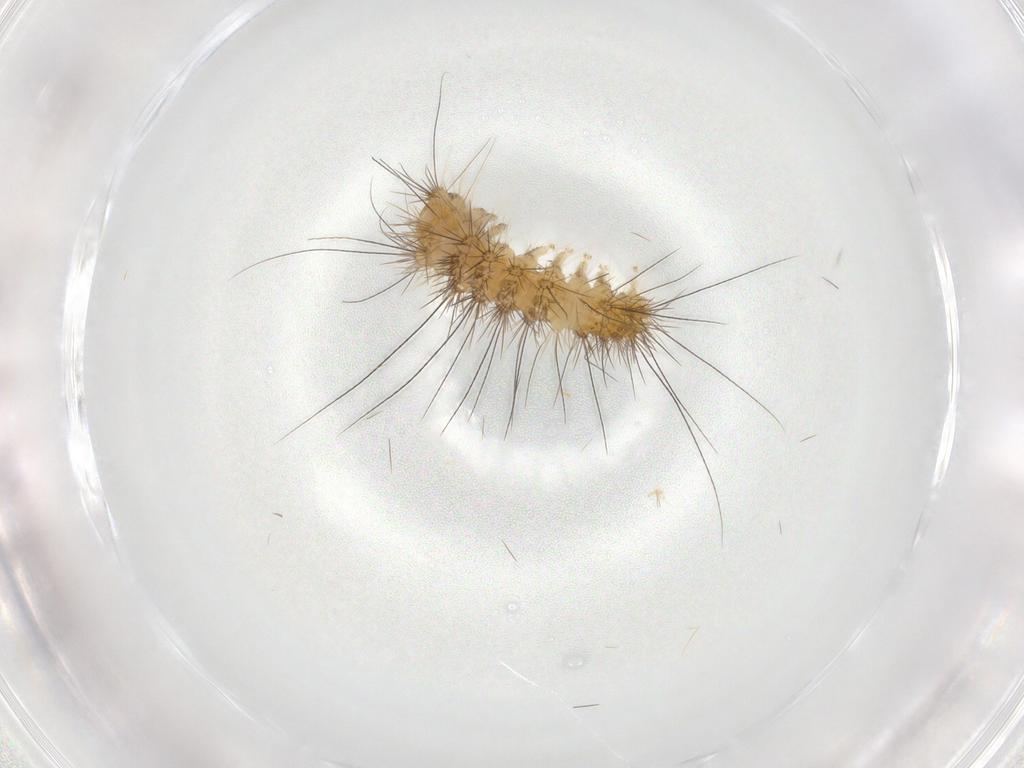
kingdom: Animalia
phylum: Arthropoda
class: Insecta
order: Lepidoptera
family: Erebidae
